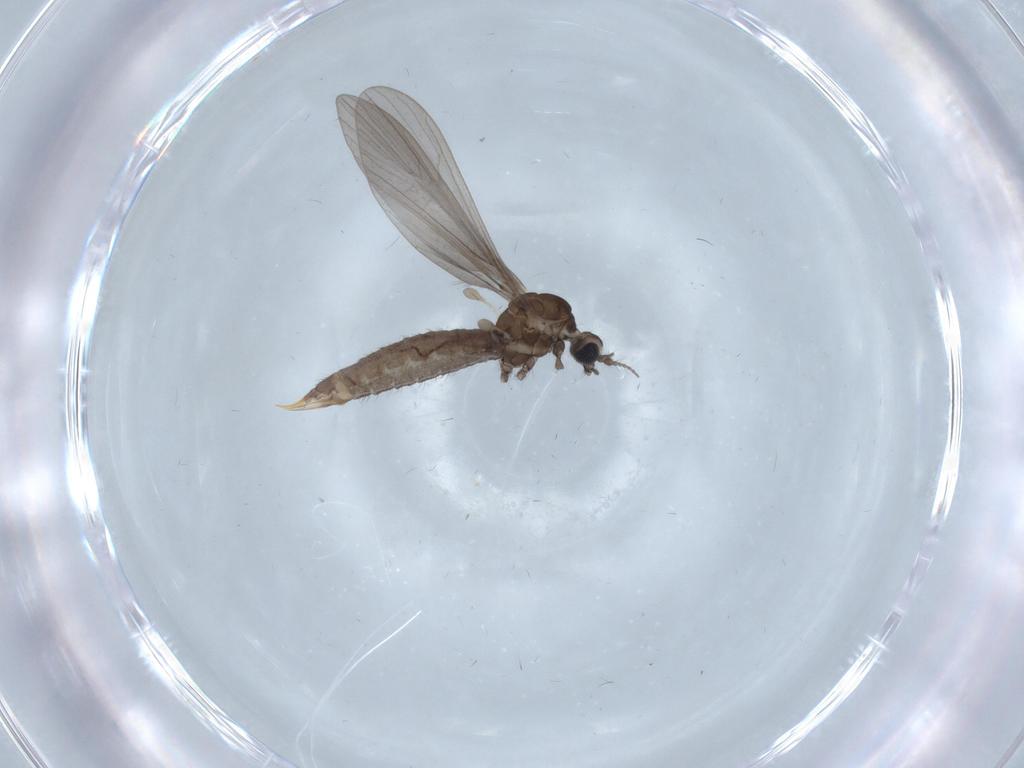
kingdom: Animalia
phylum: Arthropoda
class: Insecta
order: Diptera
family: Limoniidae
